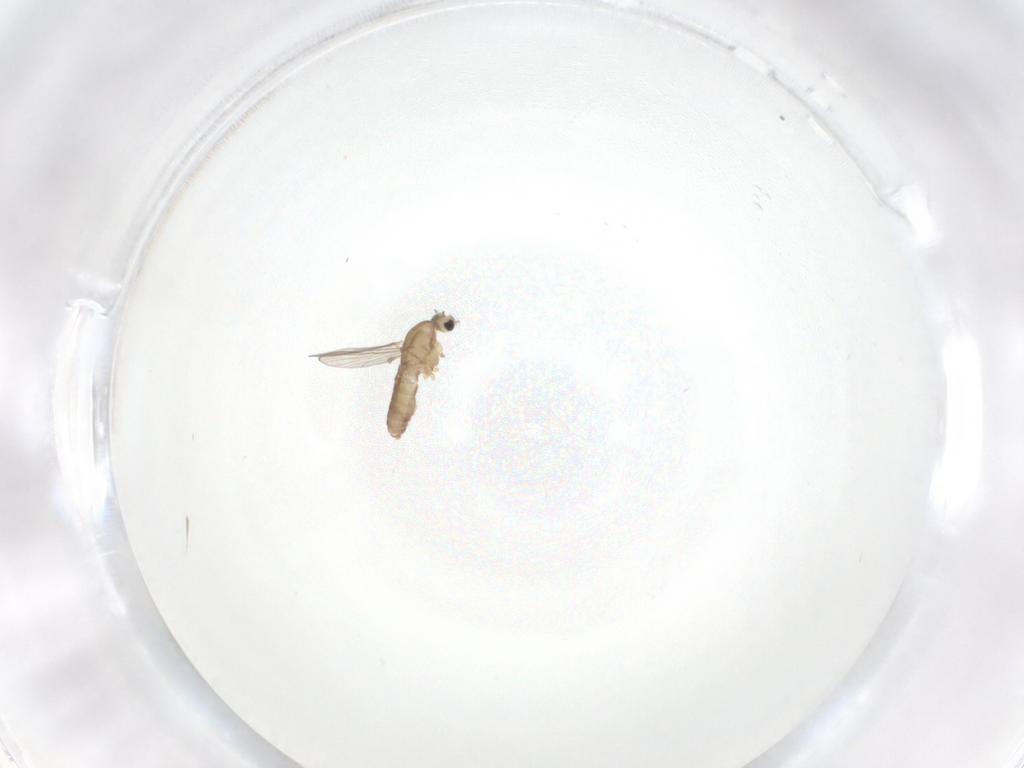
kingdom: Animalia
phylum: Arthropoda
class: Insecta
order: Diptera
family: Chironomidae
